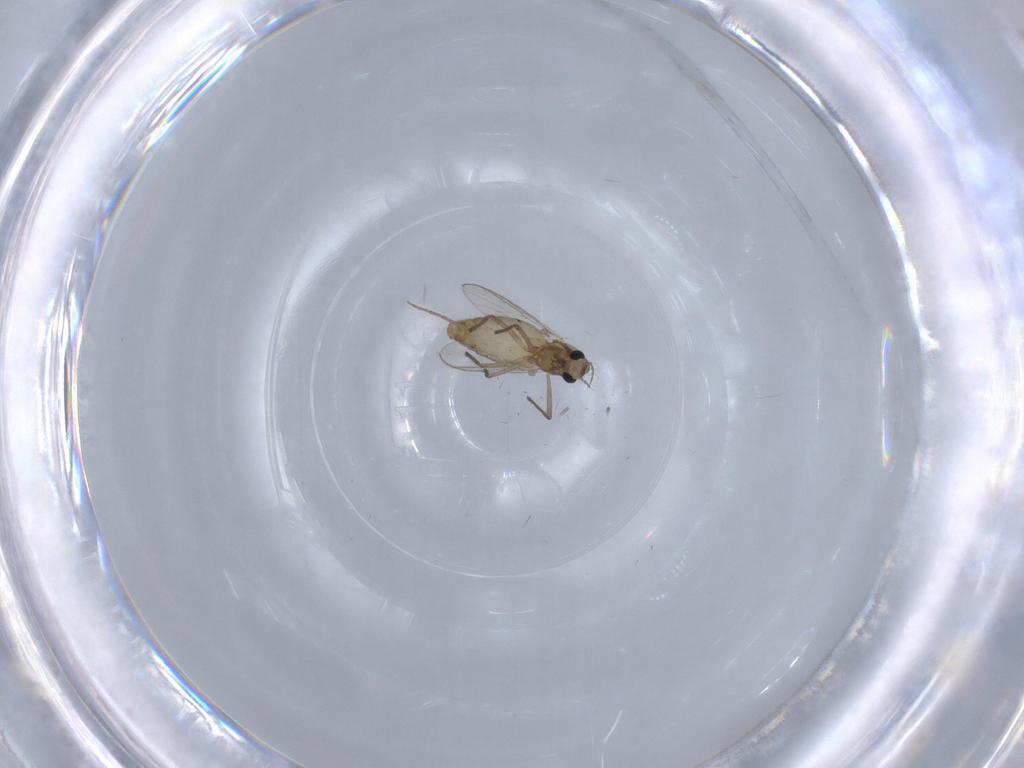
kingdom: Animalia
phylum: Arthropoda
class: Insecta
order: Diptera
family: Chironomidae
